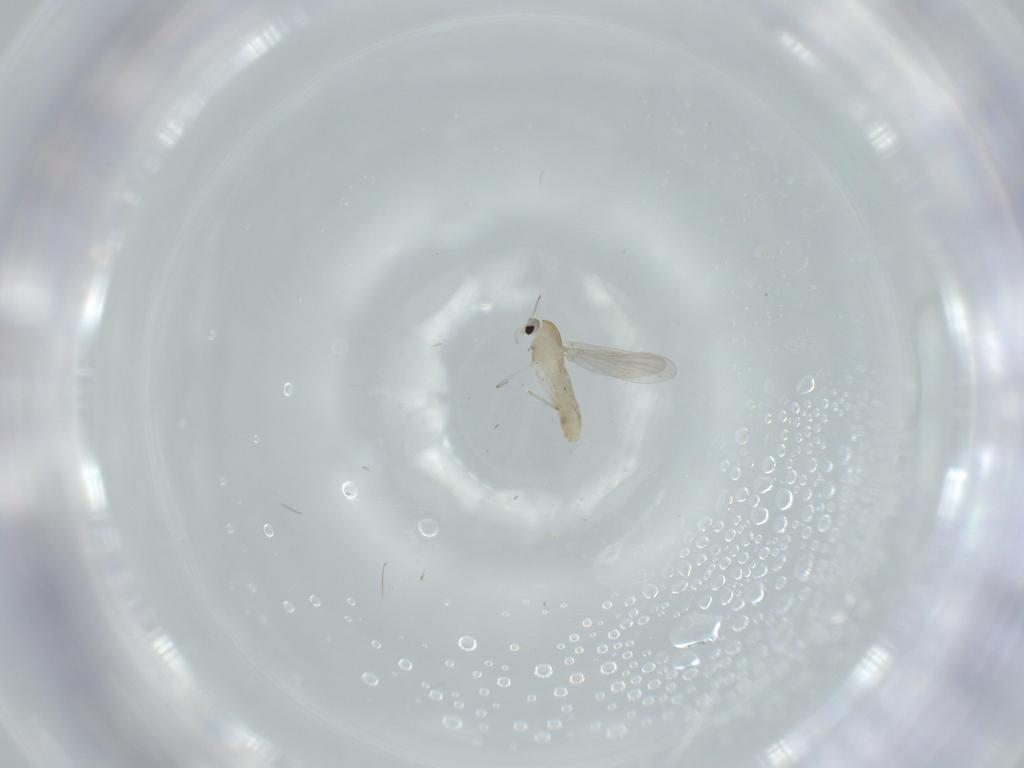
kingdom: Animalia
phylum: Arthropoda
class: Insecta
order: Diptera
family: Chironomidae
